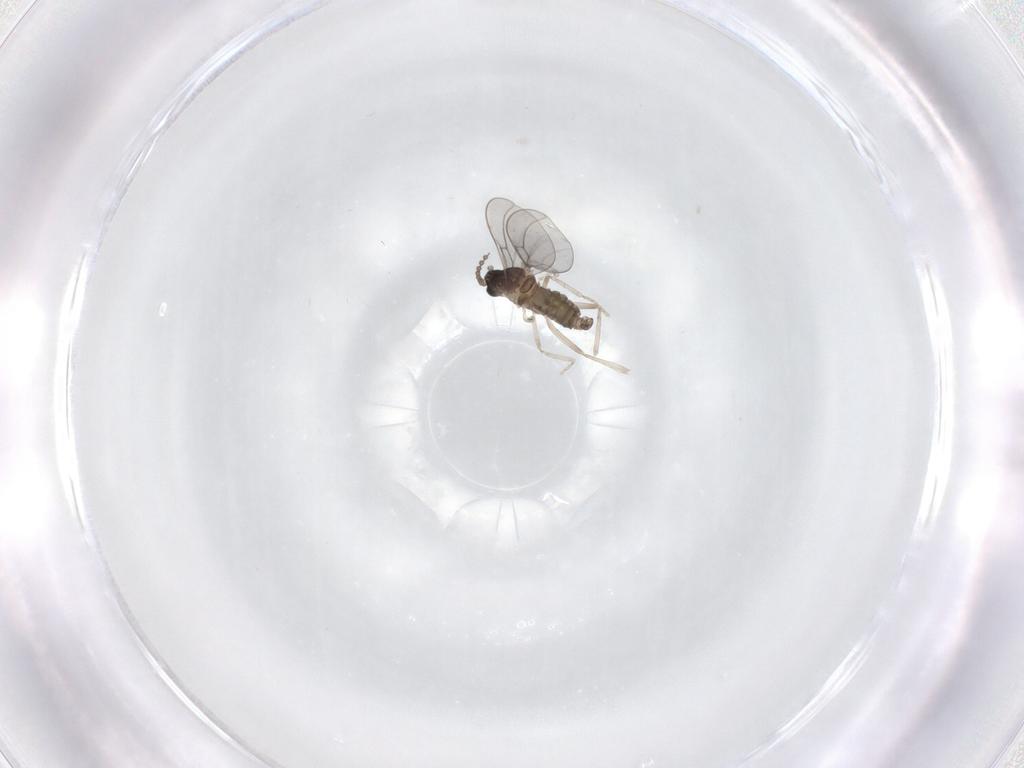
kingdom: Animalia
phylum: Arthropoda
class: Insecta
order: Diptera
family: Cecidomyiidae
